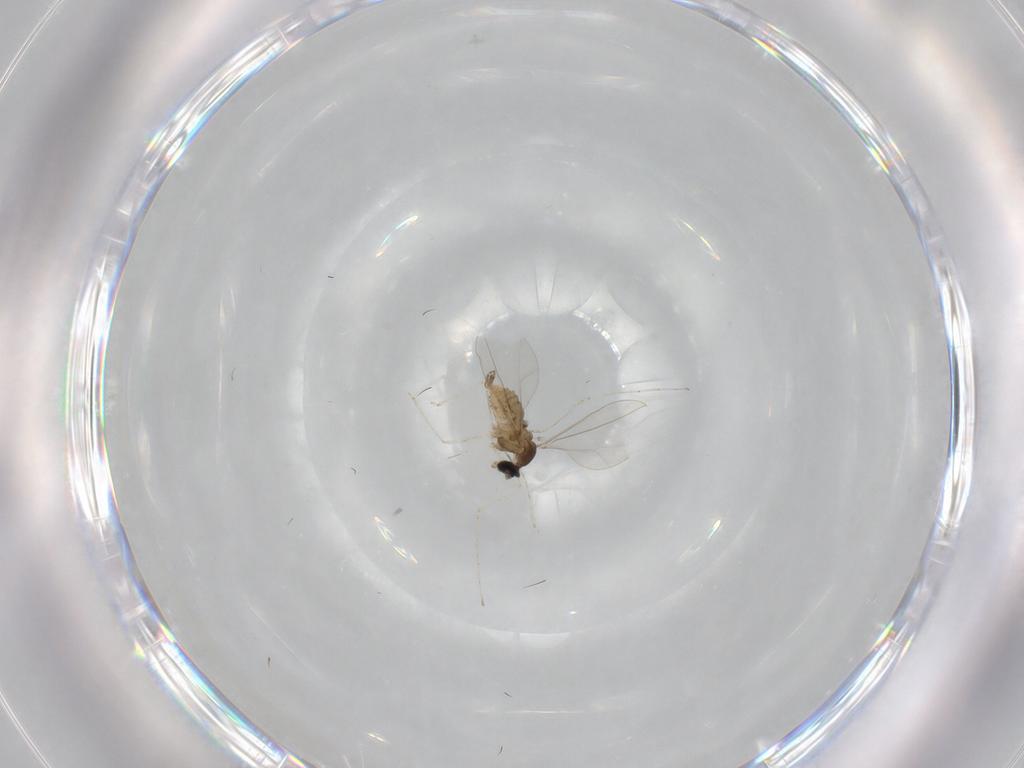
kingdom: Animalia
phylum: Arthropoda
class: Insecta
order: Diptera
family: Cecidomyiidae
